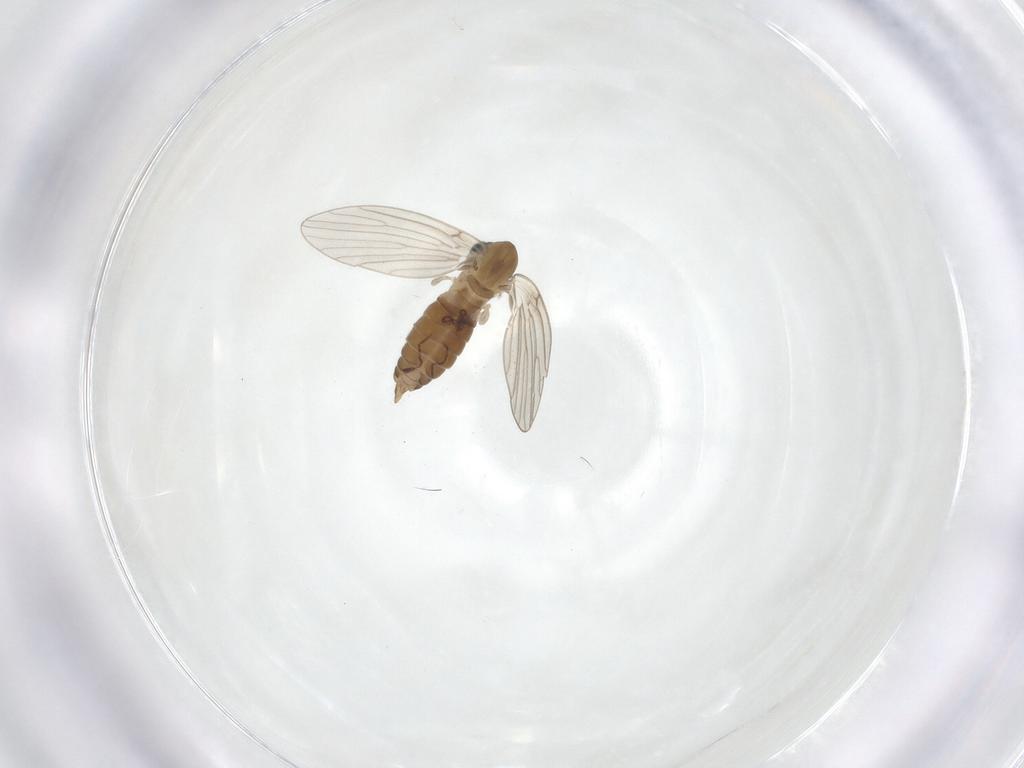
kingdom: Animalia
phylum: Arthropoda
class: Insecta
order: Diptera
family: Psychodidae
